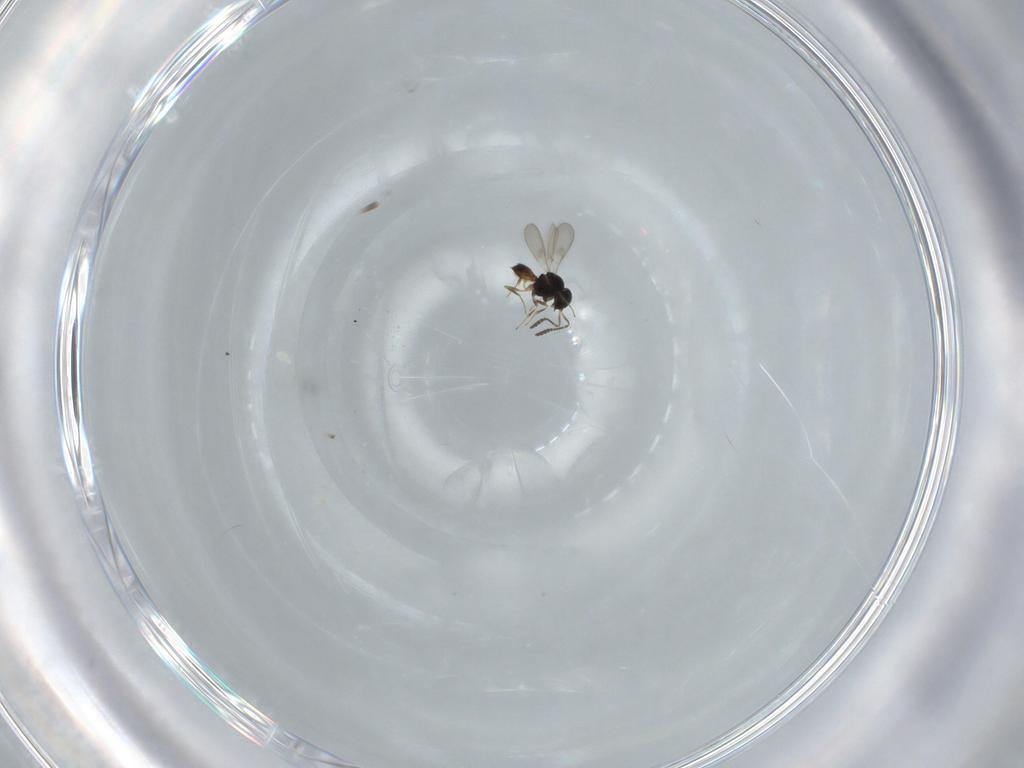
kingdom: Animalia
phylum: Arthropoda
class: Insecta
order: Hymenoptera
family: Scelionidae
